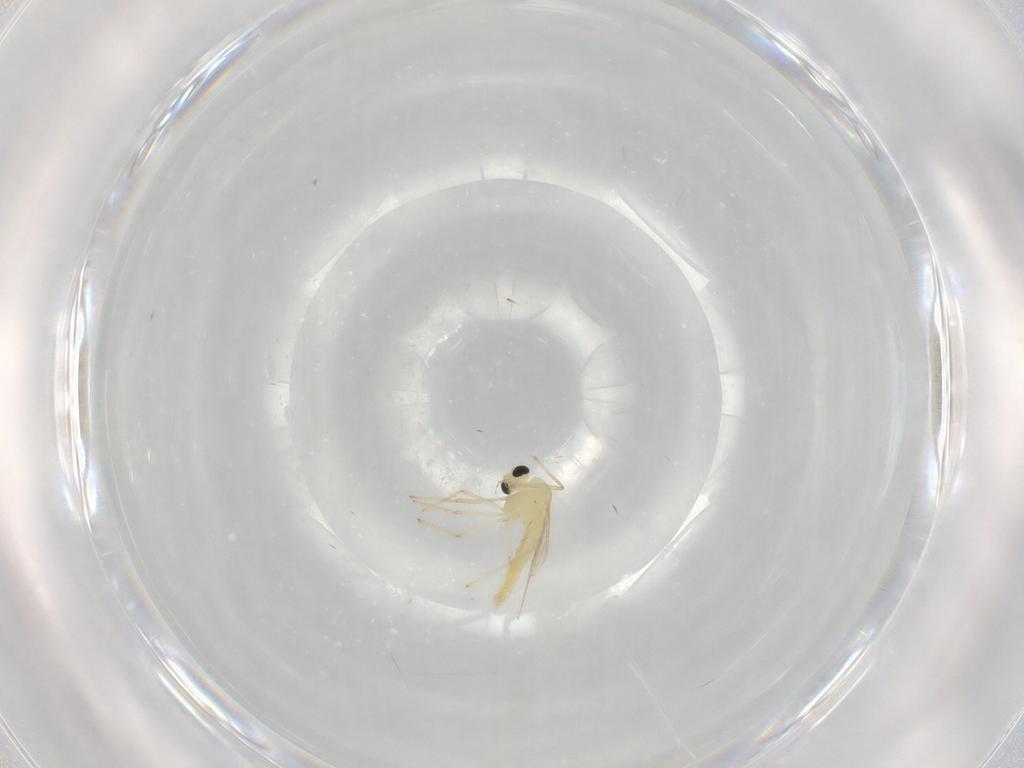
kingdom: Animalia
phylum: Arthropoda
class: Insecta
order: Diptera
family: Chironomidae
